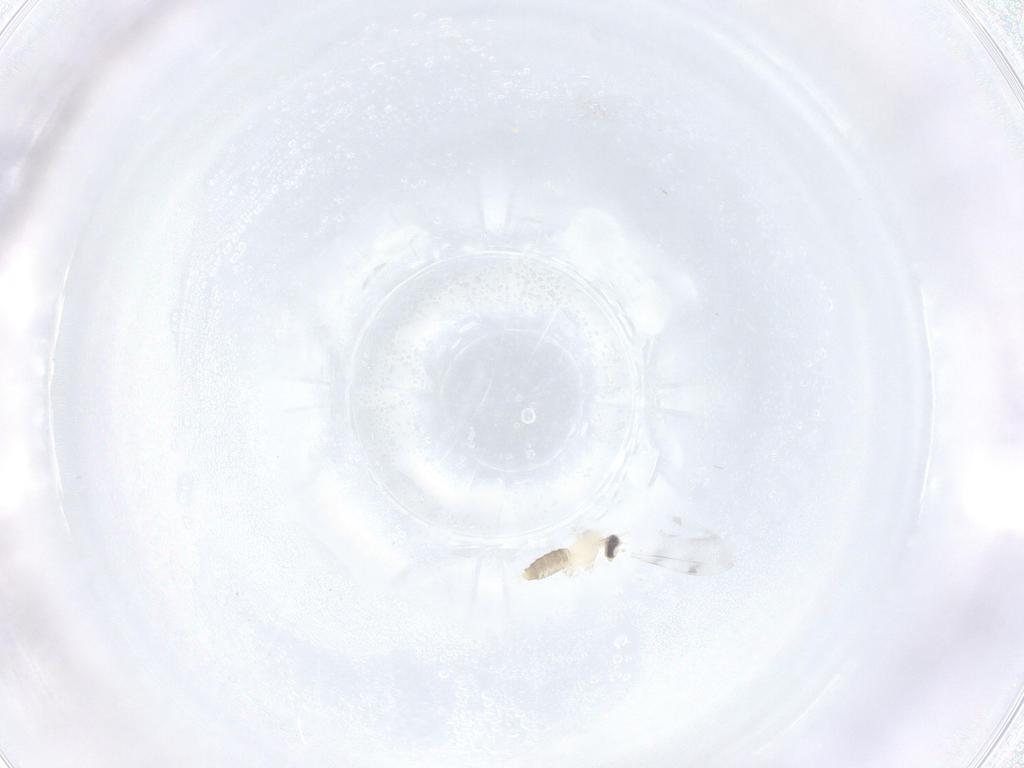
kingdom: Animalia
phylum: Arthropoda
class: Insecta
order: Diptera
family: Cecidomyiidae
